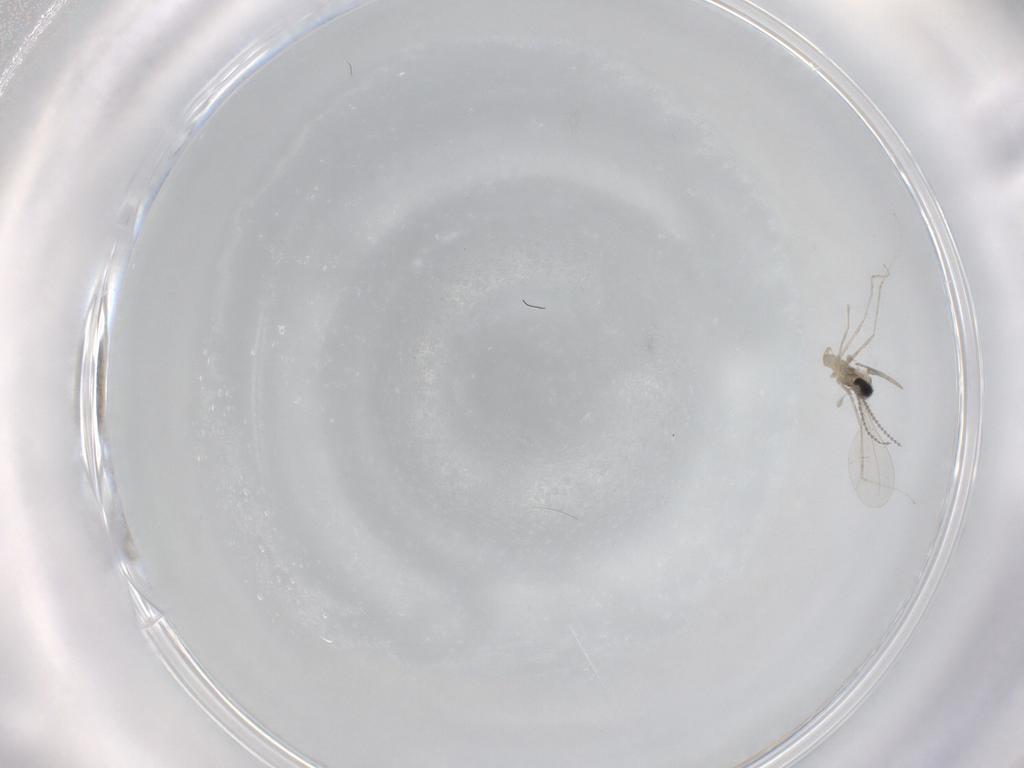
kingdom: Animalia
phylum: Arthropoda
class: Insecta
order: Diptera
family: Cecidomyiidae
